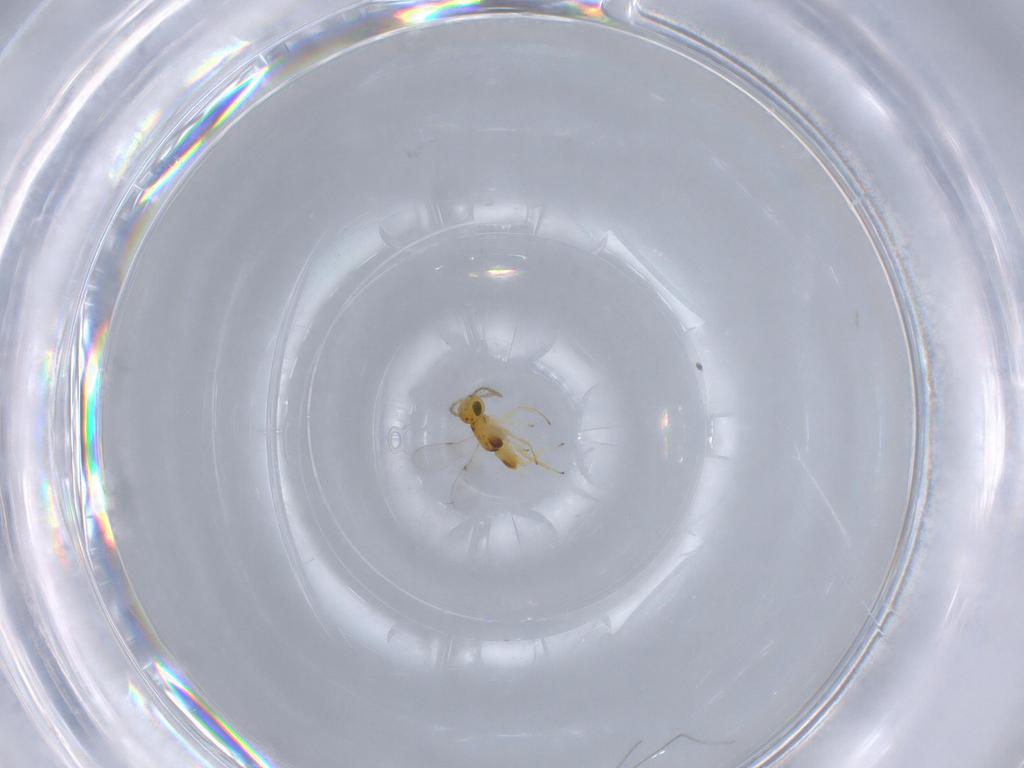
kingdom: Animalia
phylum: Arthropoda
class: Insecta
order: Hymenoptera
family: Encyrtidae
